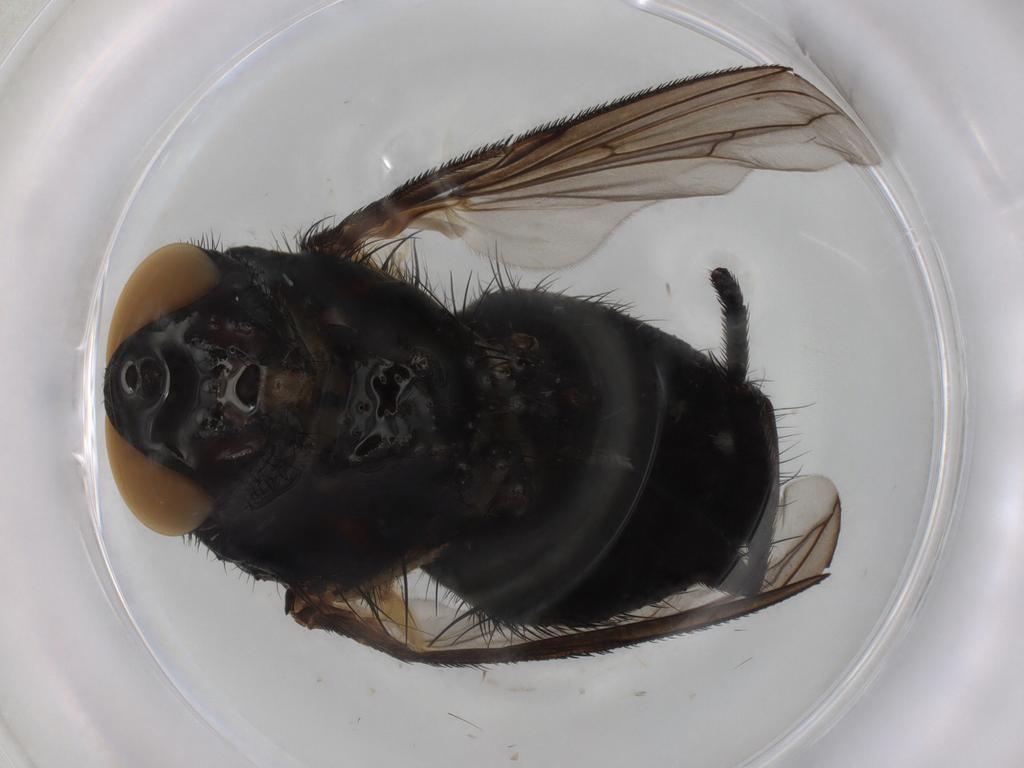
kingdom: Animalia
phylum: Arthropoda
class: Insecta
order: Diptera
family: Tachinidae
